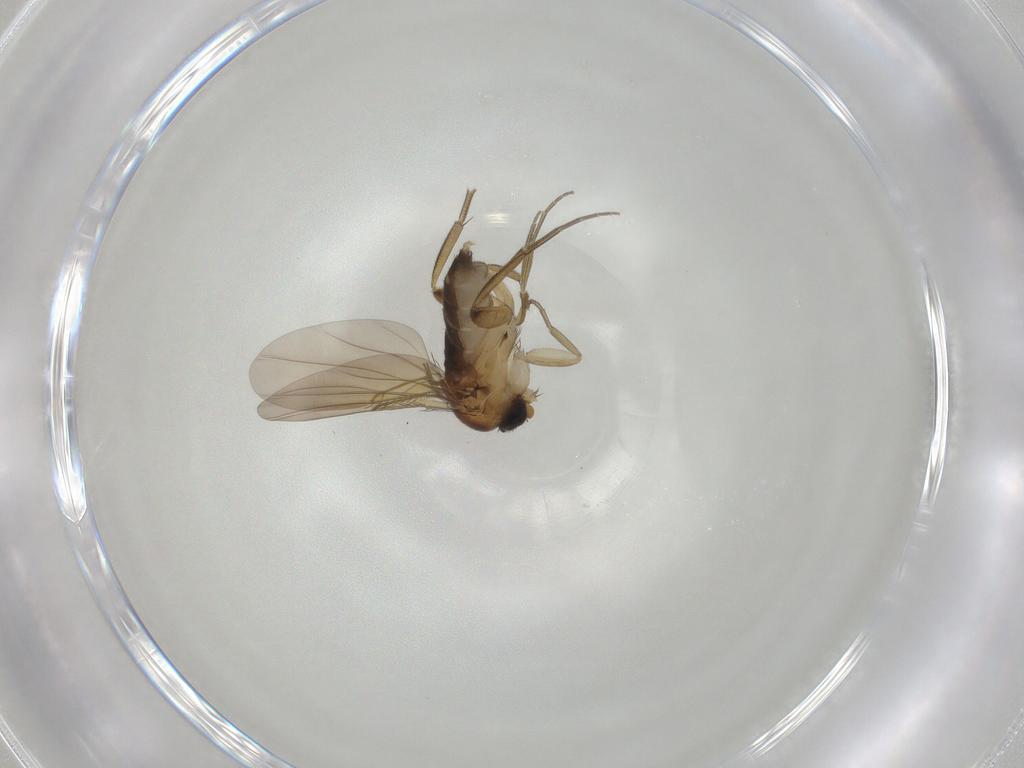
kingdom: Animalia
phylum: Arthropoda
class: Insecta
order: Diptera
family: Phoridae
